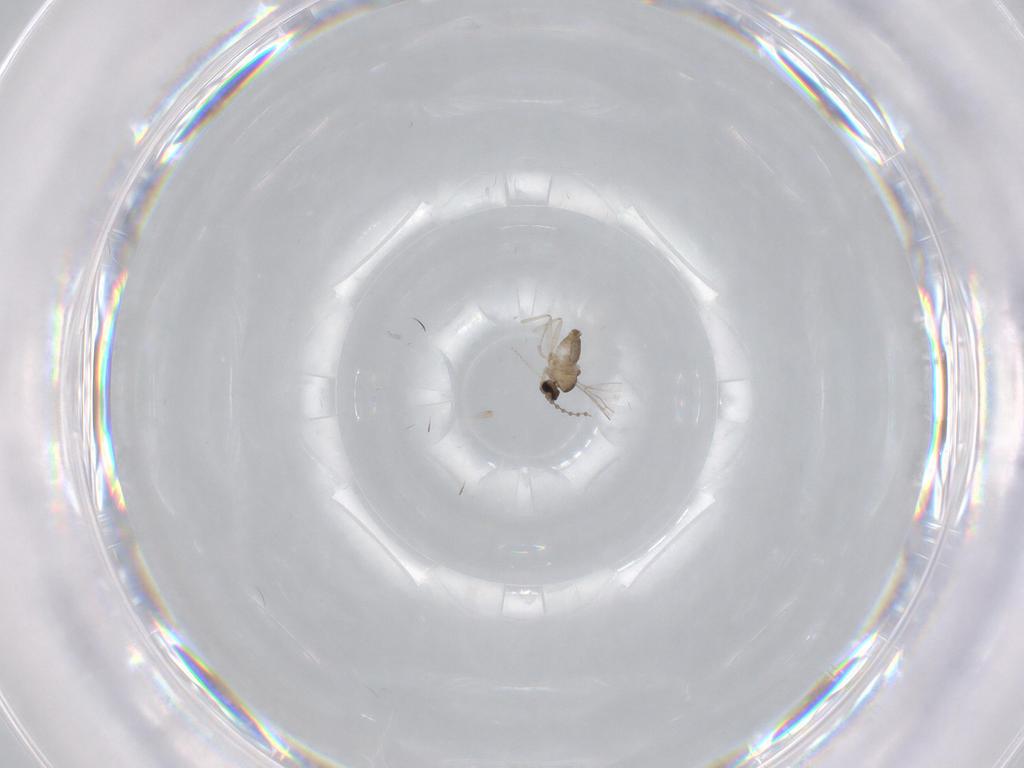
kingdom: Animalia
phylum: Arthropoda
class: Insecta
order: Diptera
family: Cecidomyiidae
